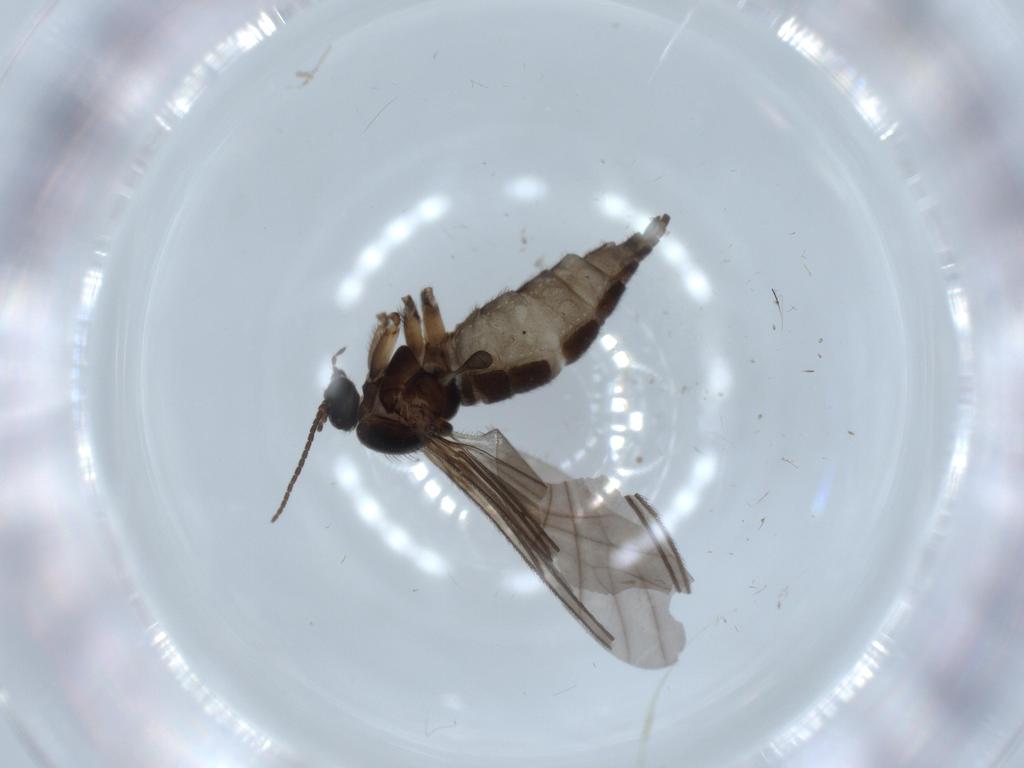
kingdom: Animalia
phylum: Arthropoda
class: Insecta
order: Diptera
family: Sciaridae
